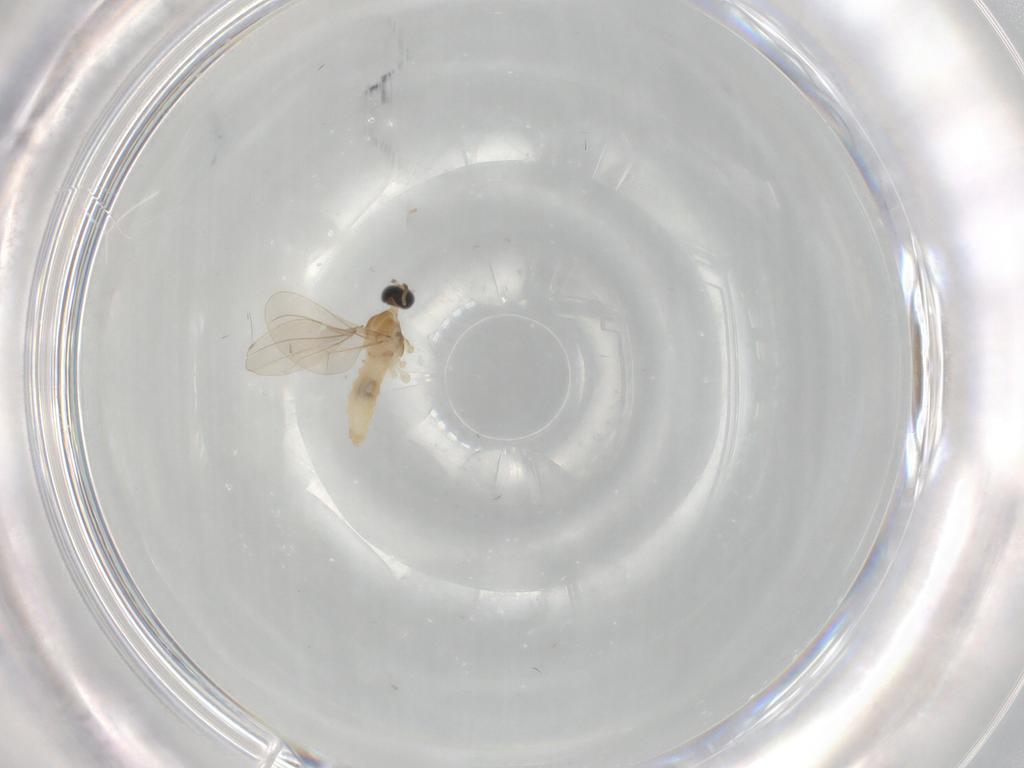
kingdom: Animalia
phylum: Arthropoda
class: Insecta
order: Diptera
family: Cecidomyiidae
